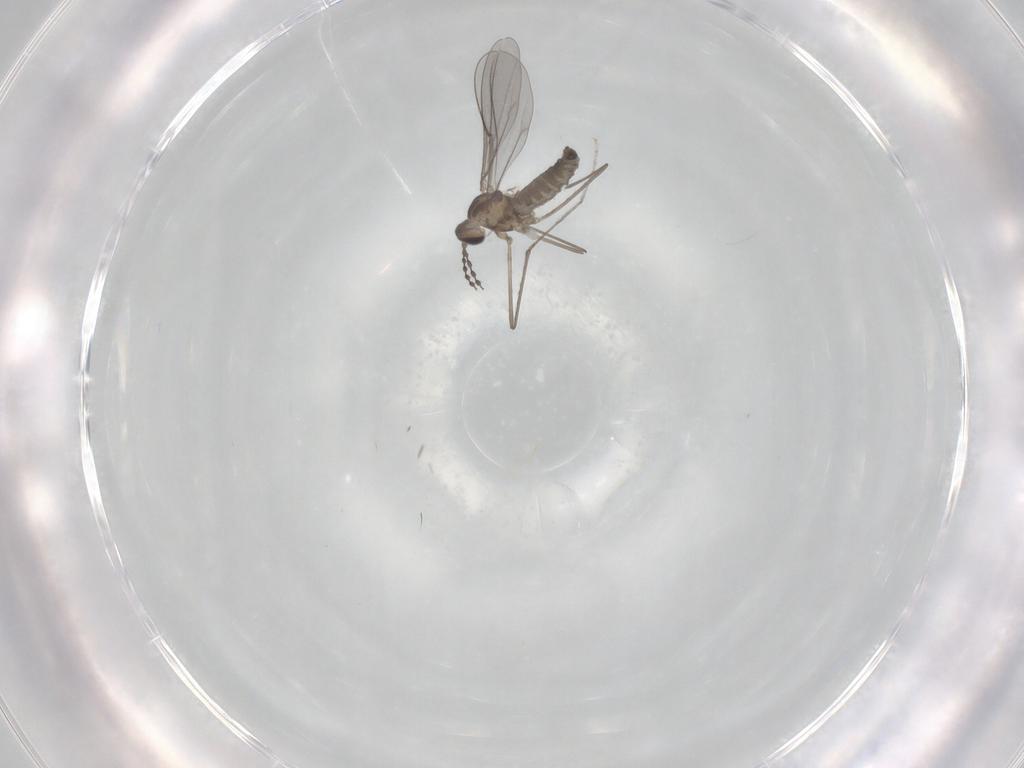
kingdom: Animalia
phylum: Arthropoda
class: Insecta
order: Diptera
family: Cecidomyiidae
